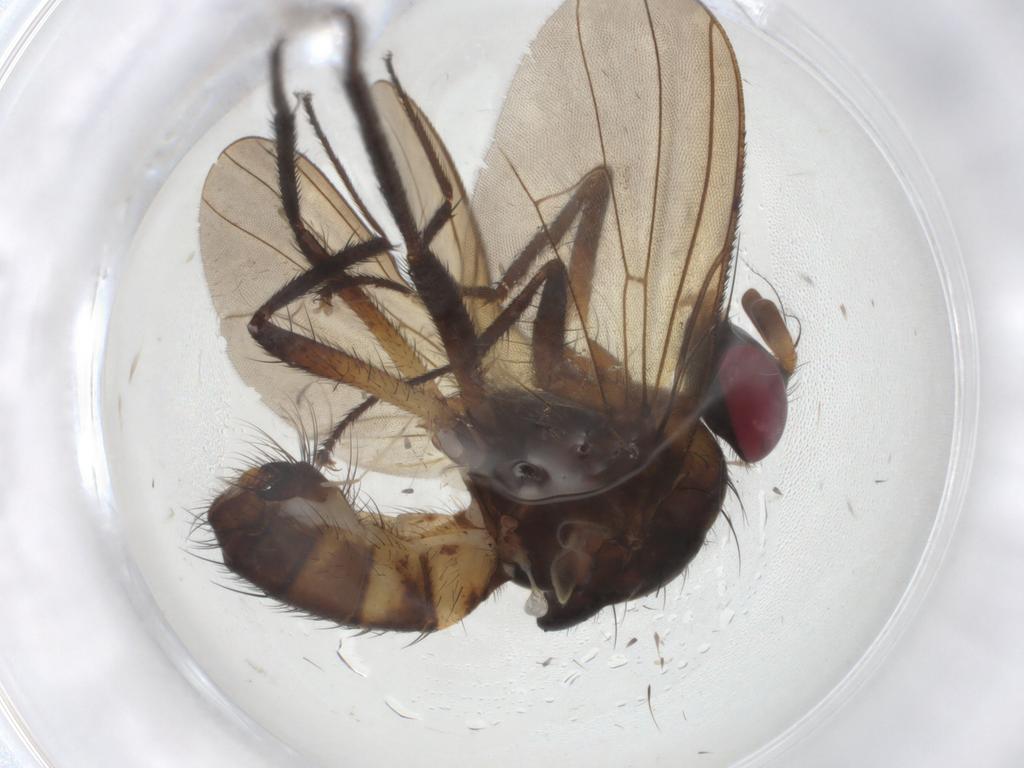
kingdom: Animalia
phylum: Arthropoda
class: Insecta
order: Diptera
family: Anthomyiidae
